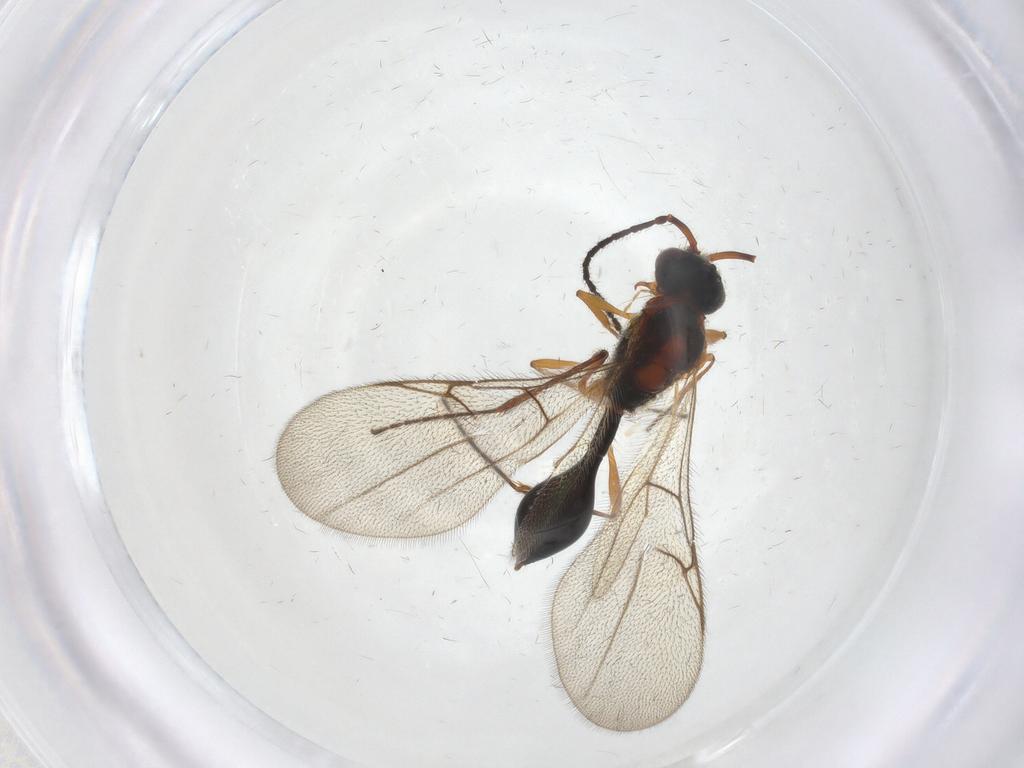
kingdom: Animalia
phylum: Arthropoda
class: Insecta
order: Hymenoptera
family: Diapriidae
